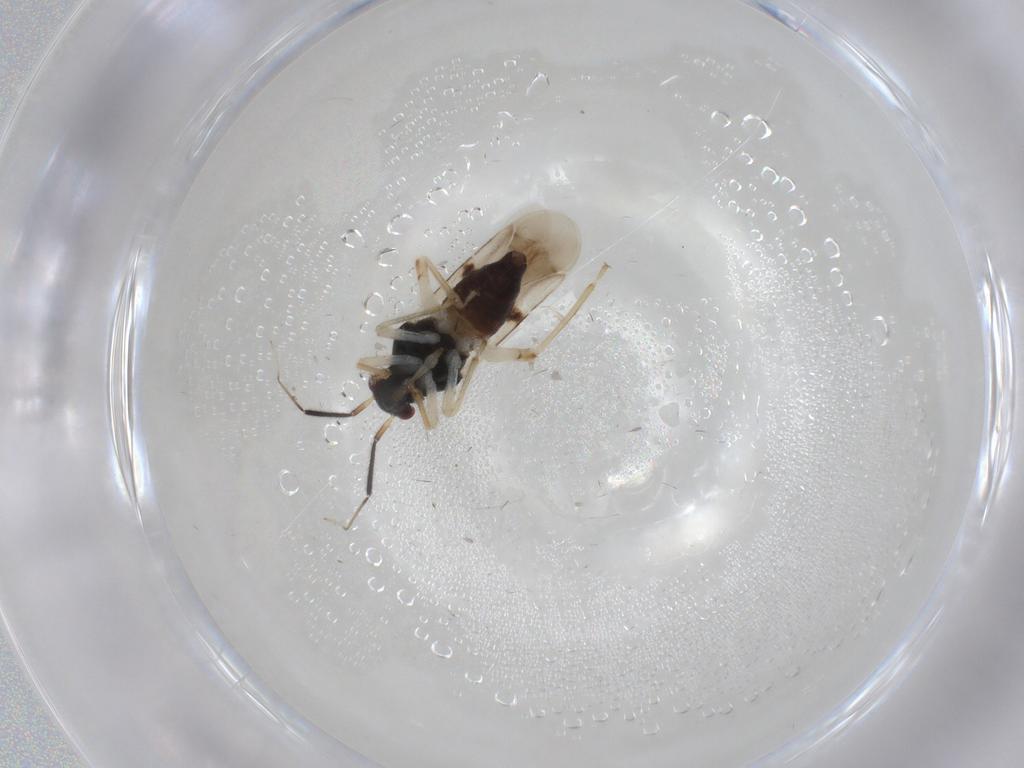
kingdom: Animalia
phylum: Arthropoda
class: Insecta
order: Hemiptera
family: Miridae
